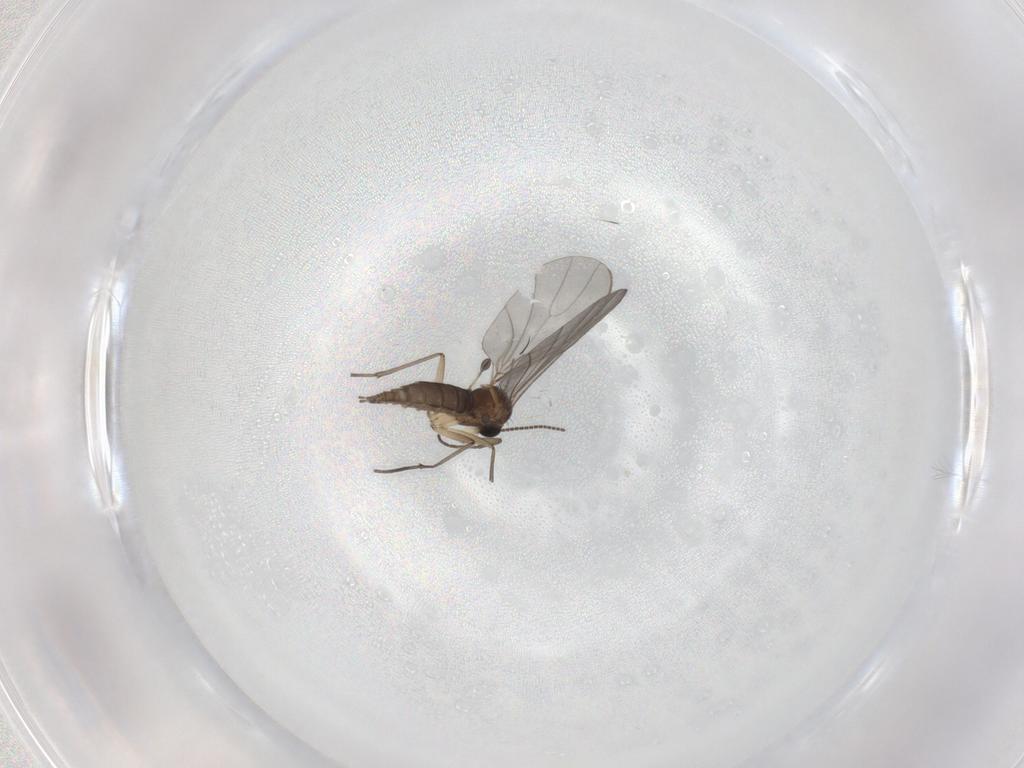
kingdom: Animalia
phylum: Arthropoda
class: Insecta
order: Diptera
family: Sciaridae
